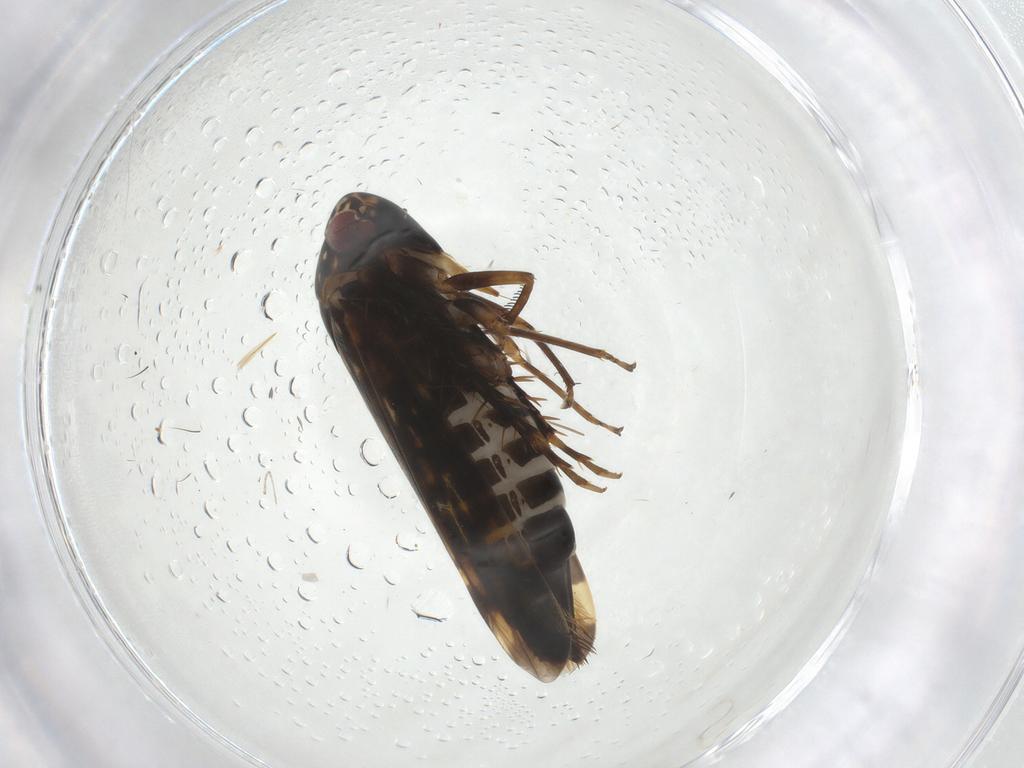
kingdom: Animalia
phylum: Arthropoda
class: Insecta
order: Hemiptera
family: Cicadellidae
